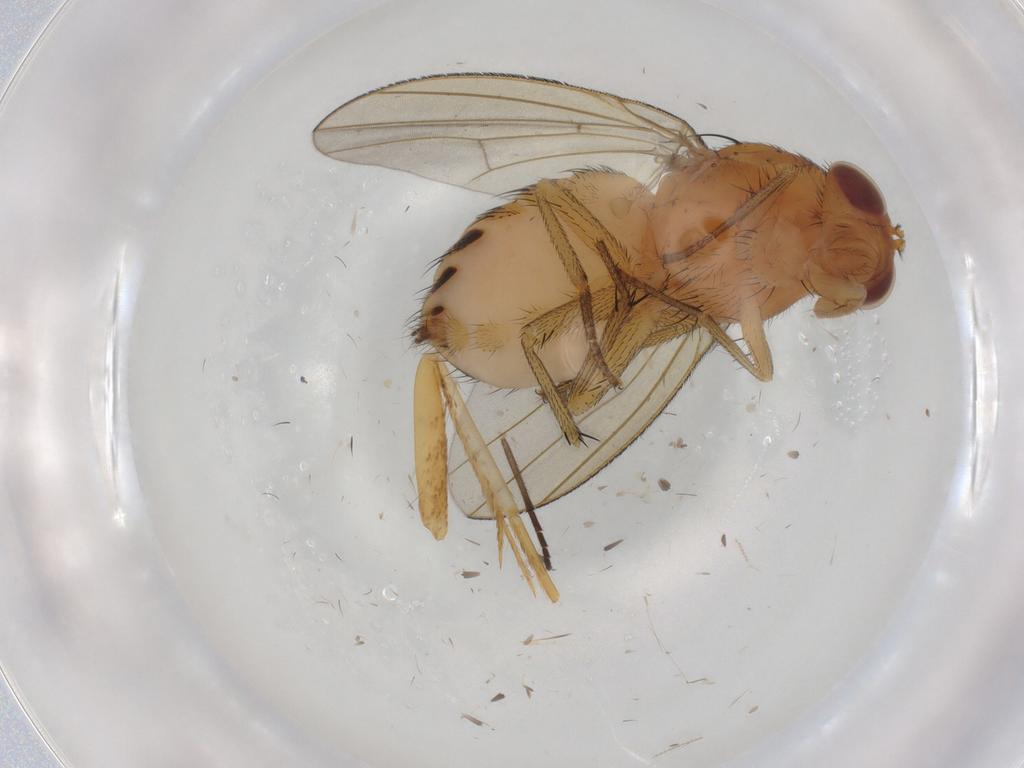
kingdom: Animalia
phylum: Arthropoda
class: Insecta
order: Diptera
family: Sciaridae
